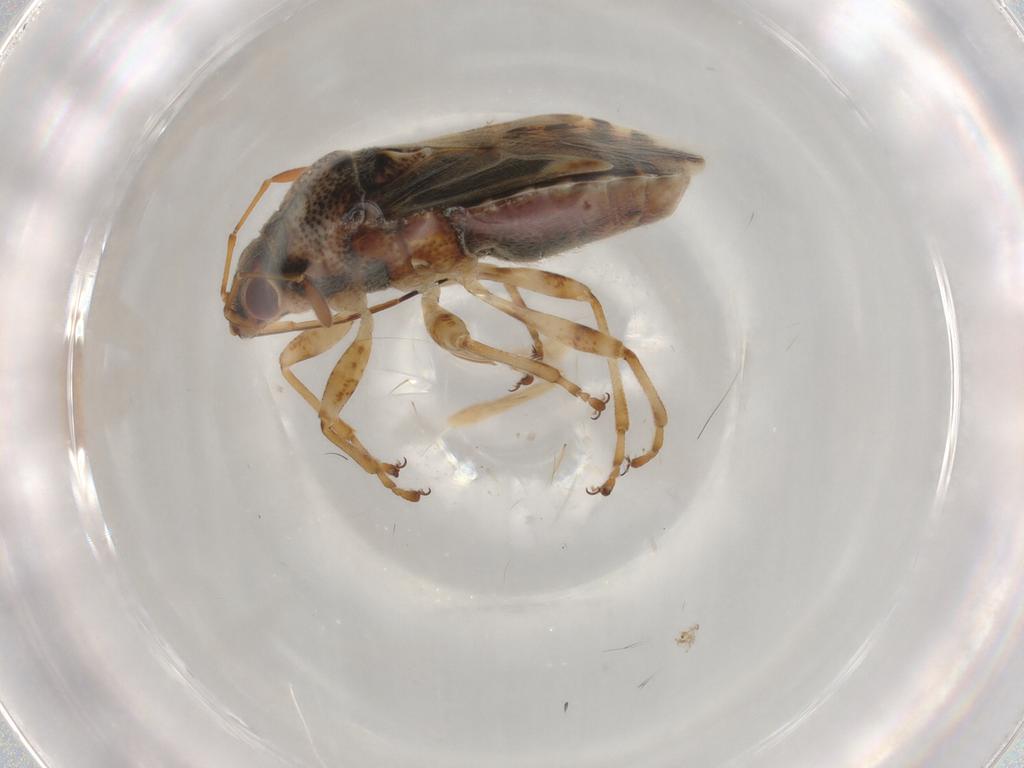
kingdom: Animalia
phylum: Arthropoda
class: Insecta
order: Hemiptera
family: Lygaeidae
